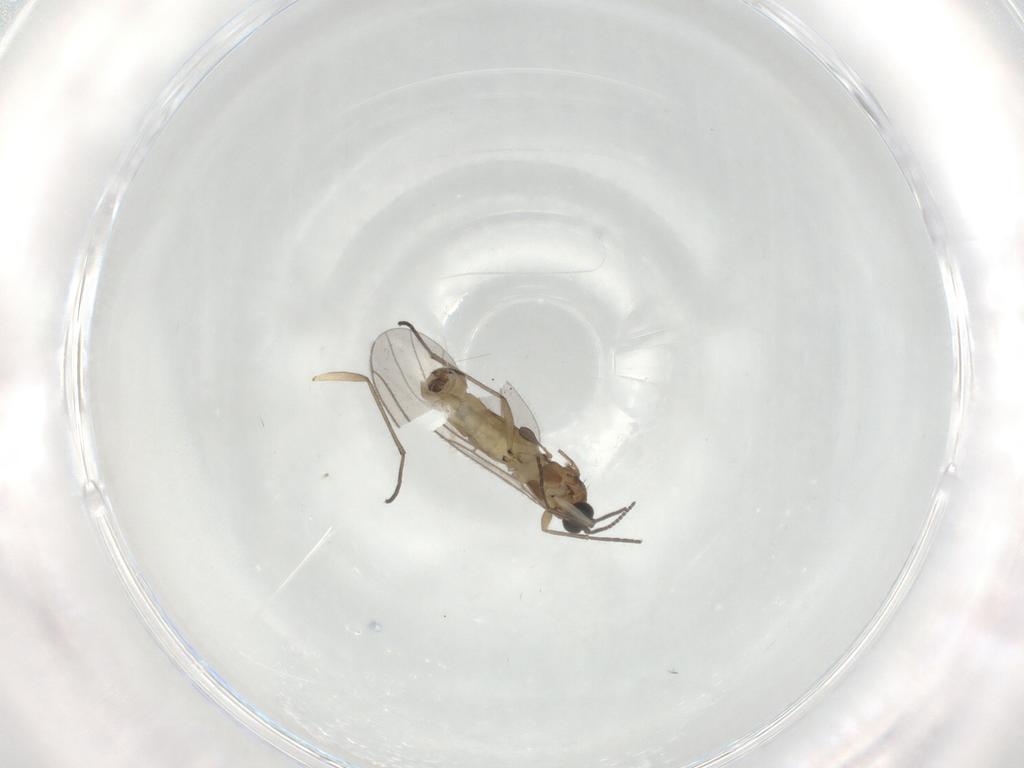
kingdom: Animalia
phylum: Arthropoda
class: Insecta
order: Diptera
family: Sciaridae
